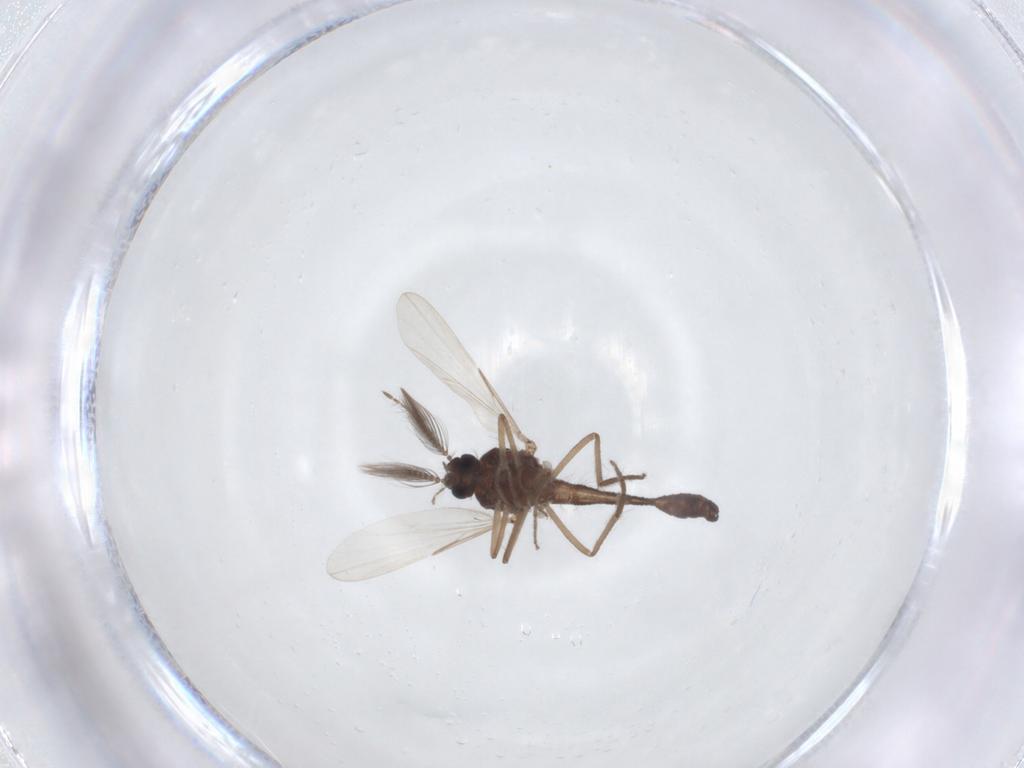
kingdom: Animalia
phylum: Arthropoda
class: Insecta
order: Diptera
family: Ceratopogonidae
